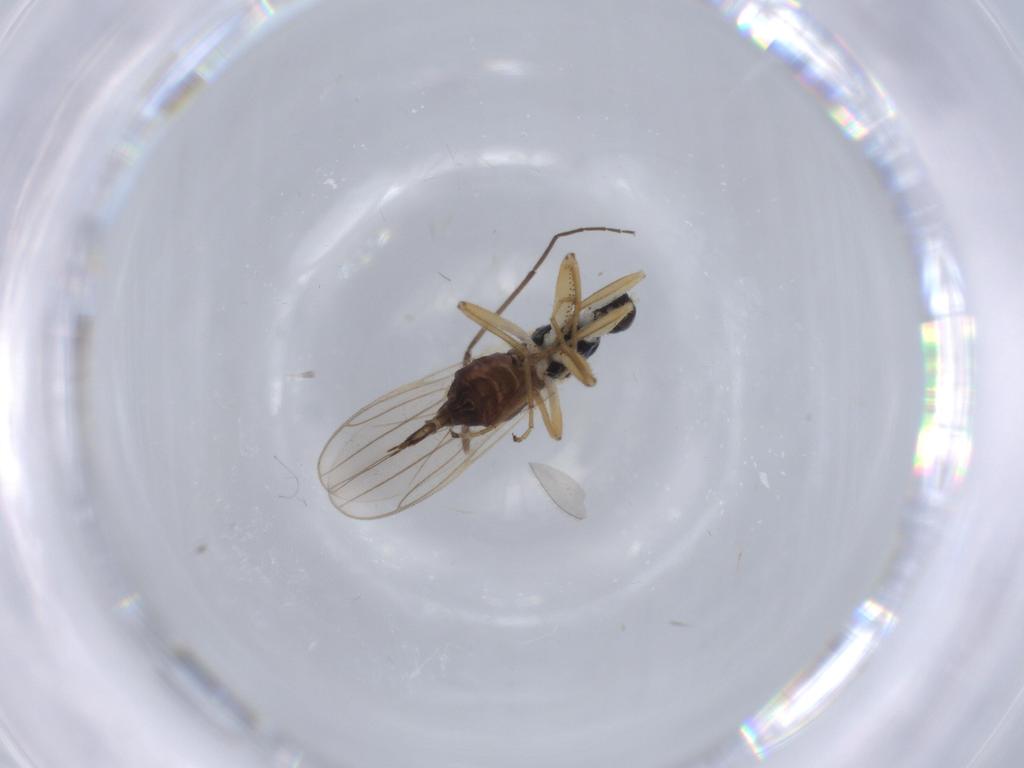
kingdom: Animalia
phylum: Arthropoda
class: Insecta
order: Diptera
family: Chironomidae
